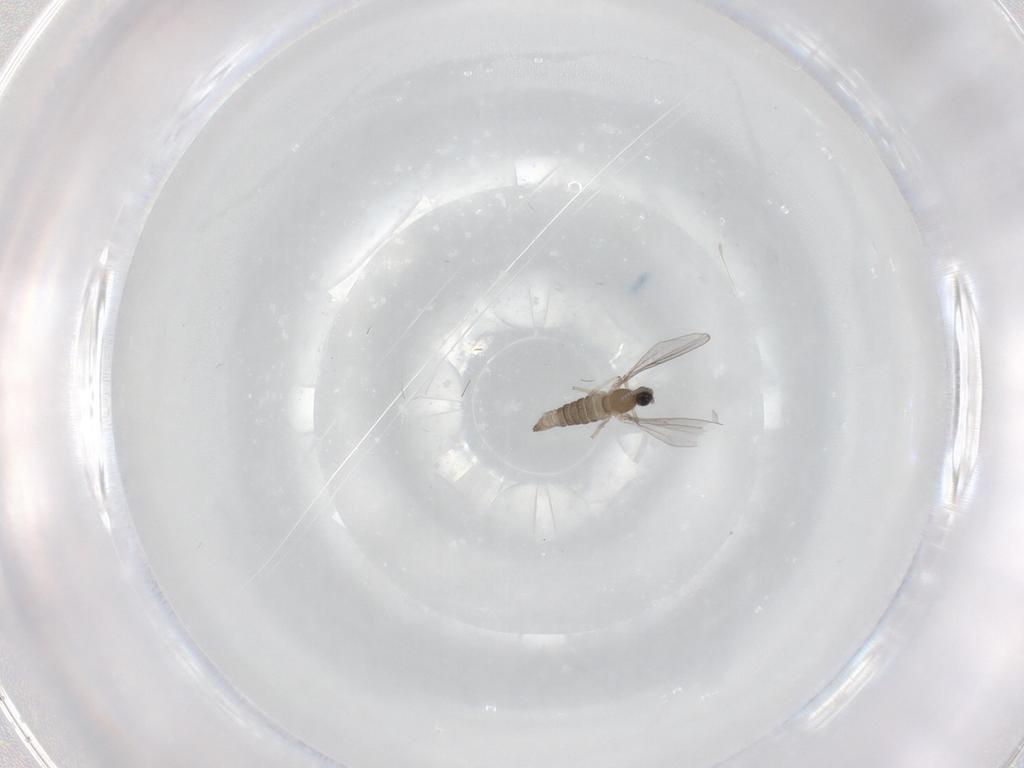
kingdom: Animalia
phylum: Arthropoda
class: Insecta
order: Diptera
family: Cecidomyiidae
